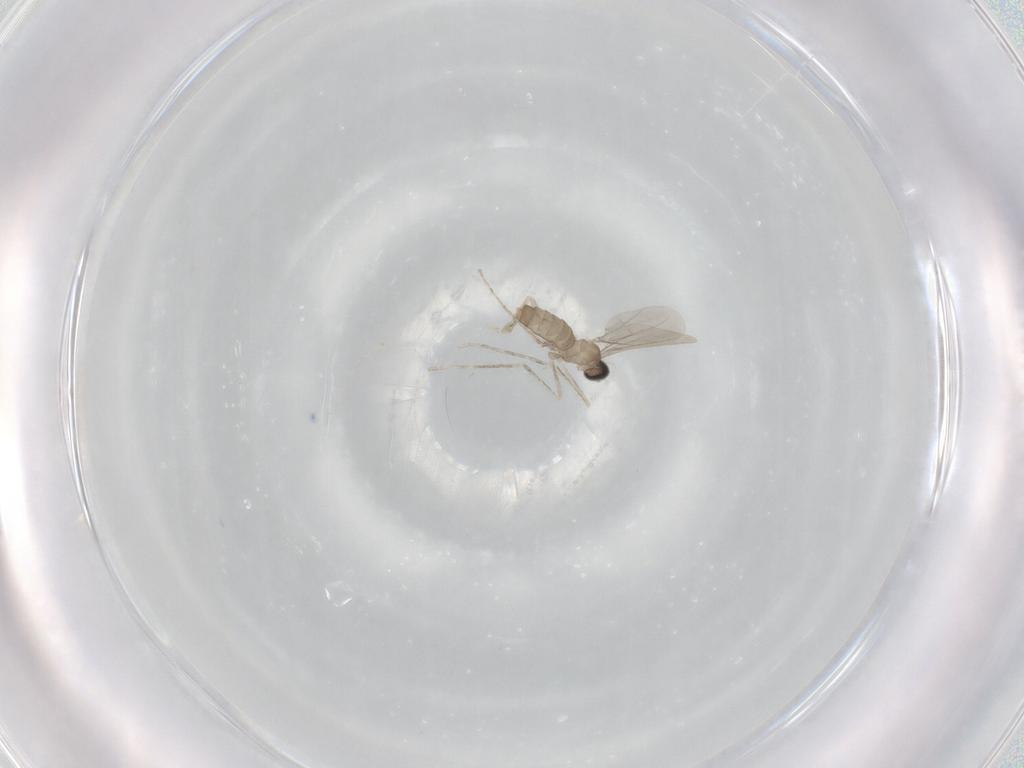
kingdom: Animalia
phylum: Arthropoda
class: Insecta
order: Diptera
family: Cecidomyiidae
